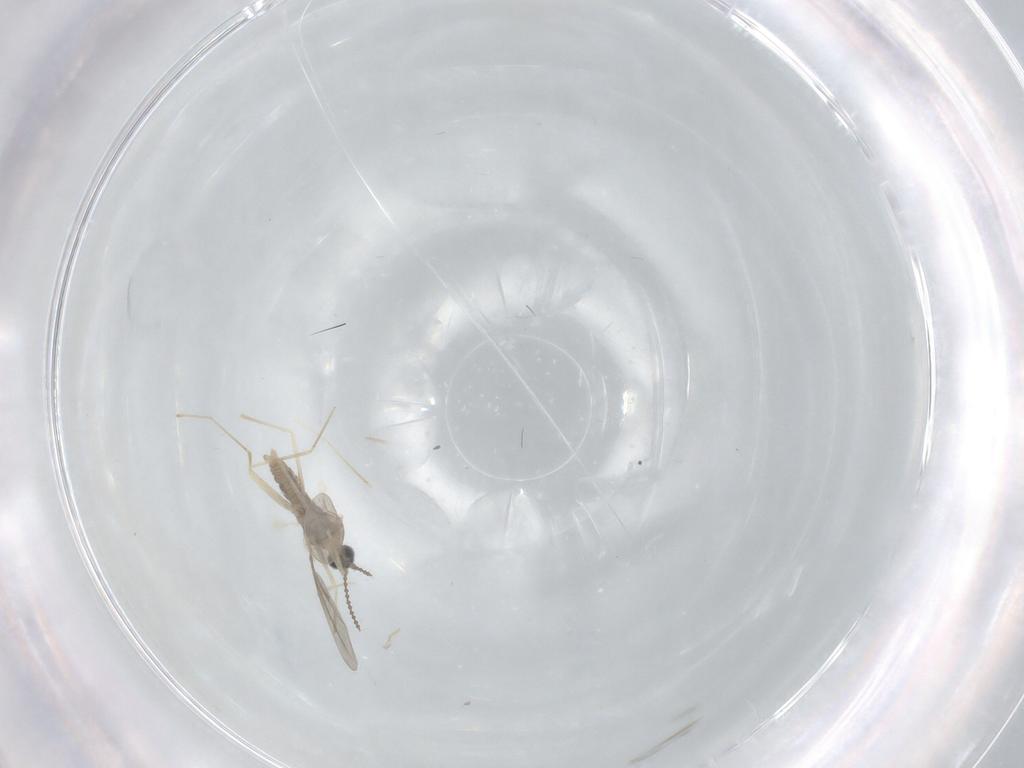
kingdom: Animalia
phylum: Arthropoda
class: Insecta
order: Diptera
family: Cecidomyiidae
